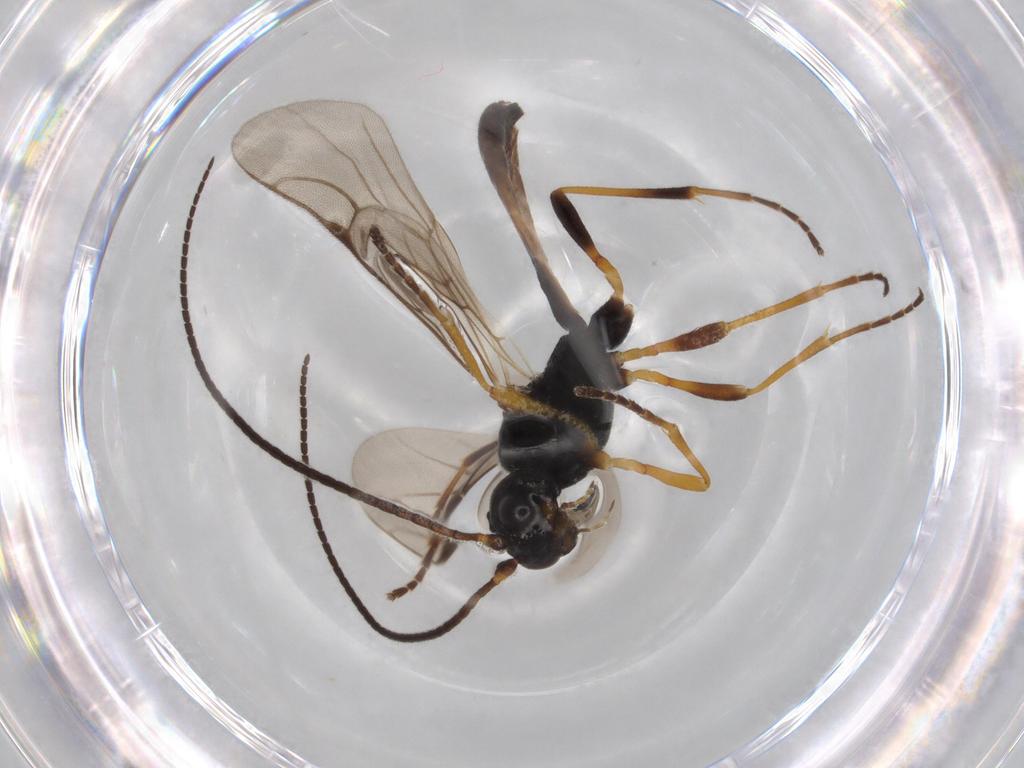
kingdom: Animalia
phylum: Arthropoda
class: Insecta
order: Hymenoptera
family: Braconidae
